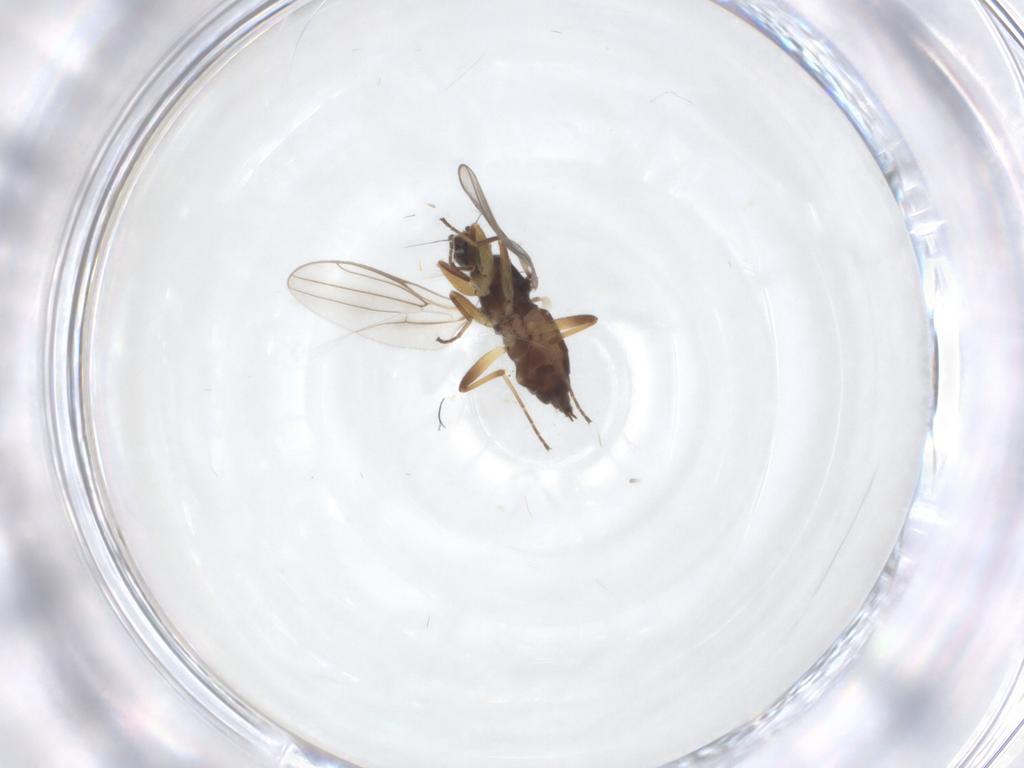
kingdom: Animalia
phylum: Arthropoda
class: Insecta
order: Diptera
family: Hybotidae
